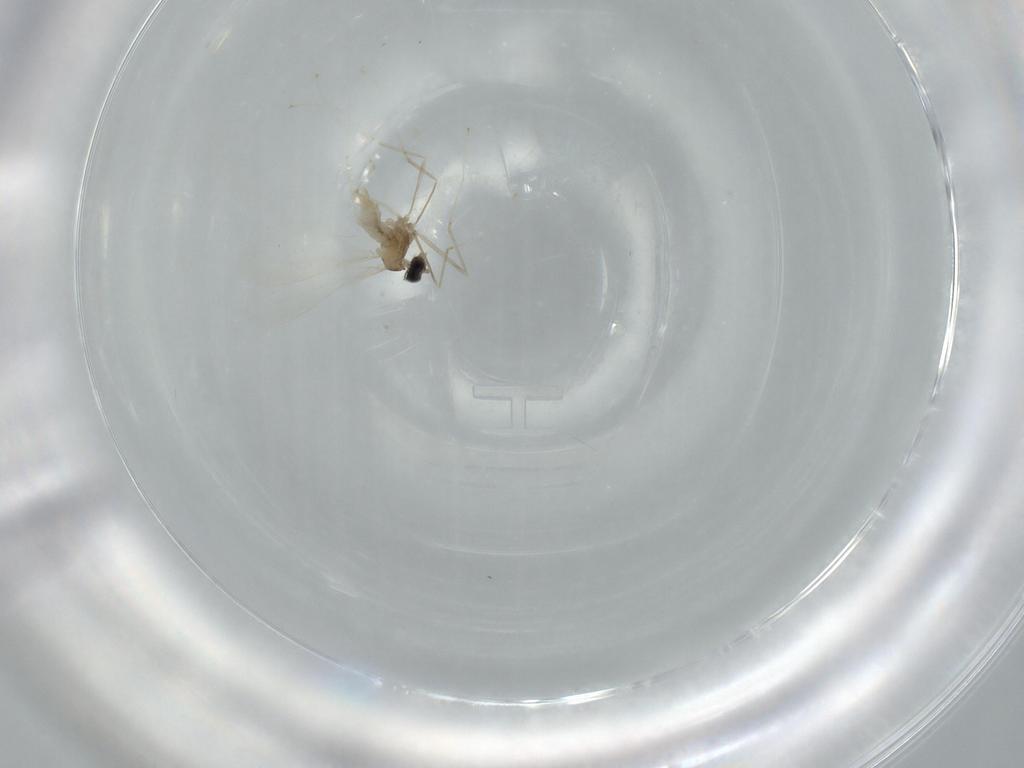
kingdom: Animalia
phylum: Arthropoda
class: Insecta
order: Diptera
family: Cecidomyiidae
